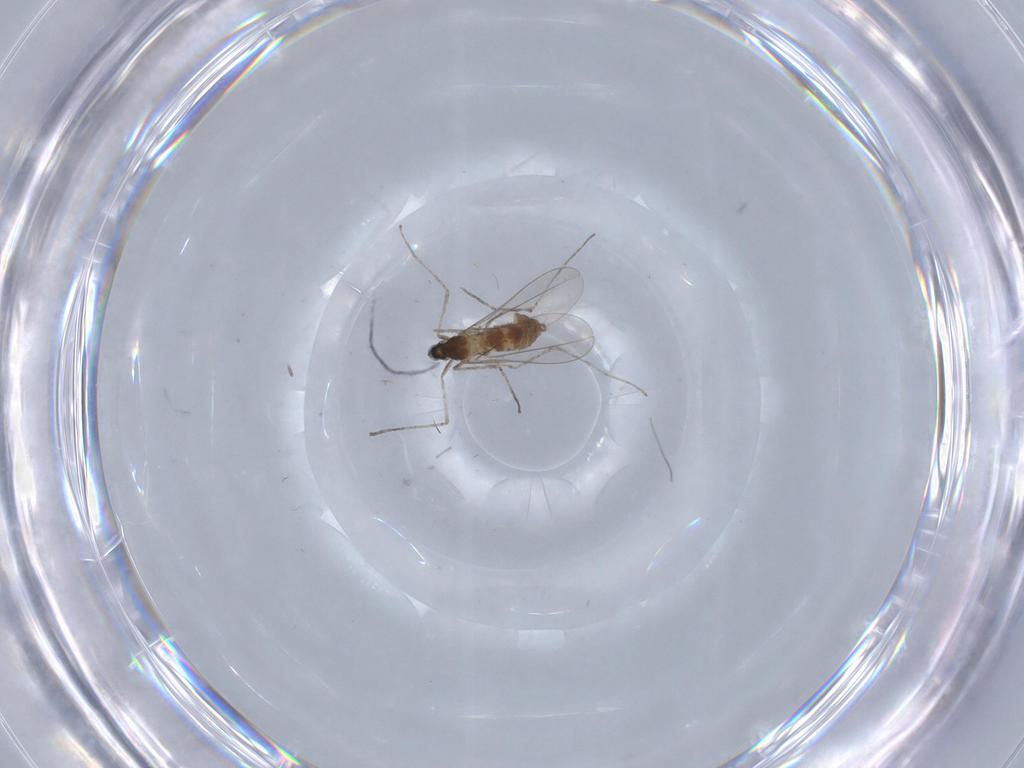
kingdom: Animalia
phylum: Arthropoda
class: Insecta
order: Diptera
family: Cecidomyiidae
